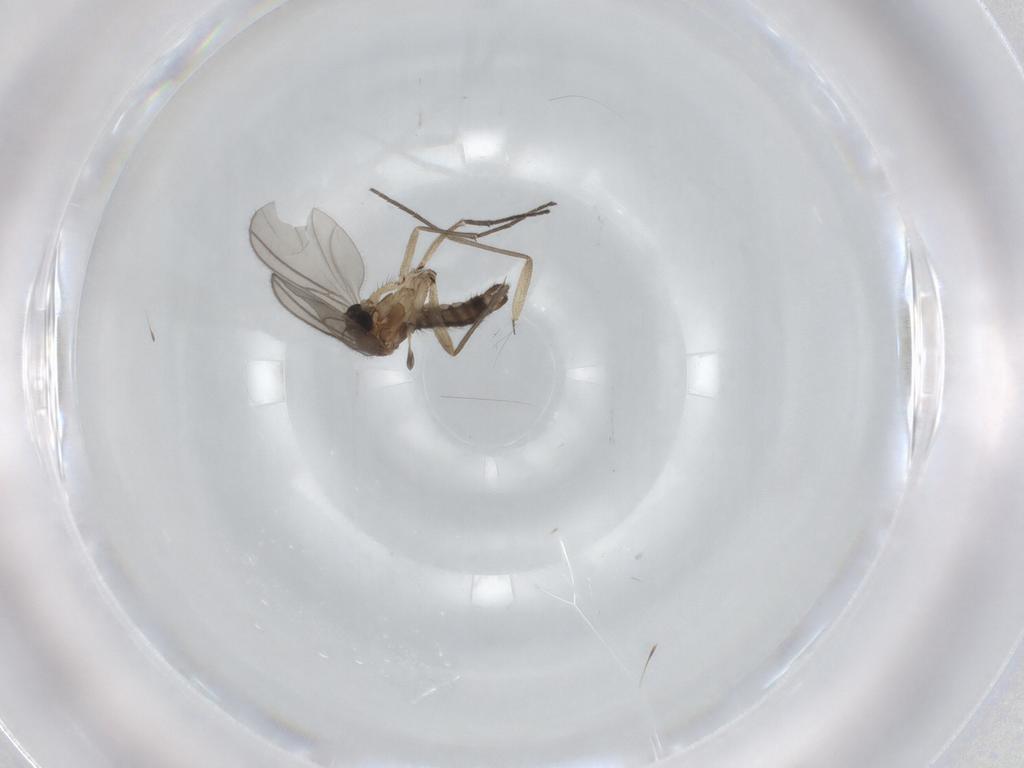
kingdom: Animalia
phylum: Arthropoda
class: Insecta
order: Diptera
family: Sciaridae
